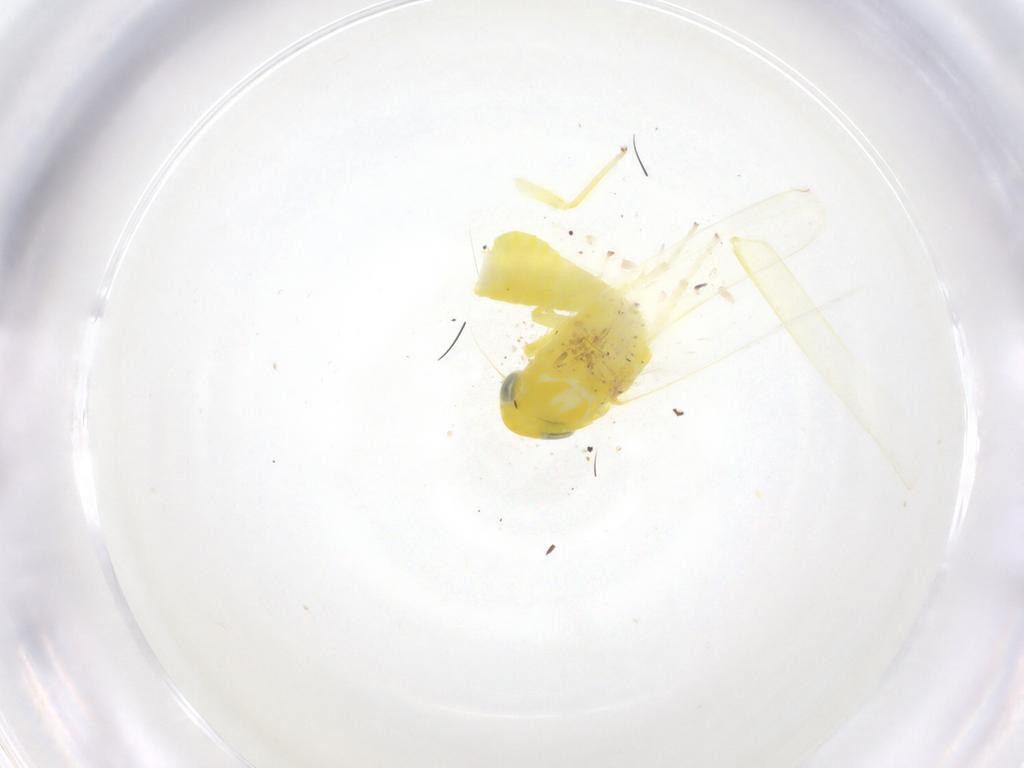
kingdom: Animalia
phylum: Arthropoda
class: Insecta
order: Hemiptera
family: Cicadellidae
